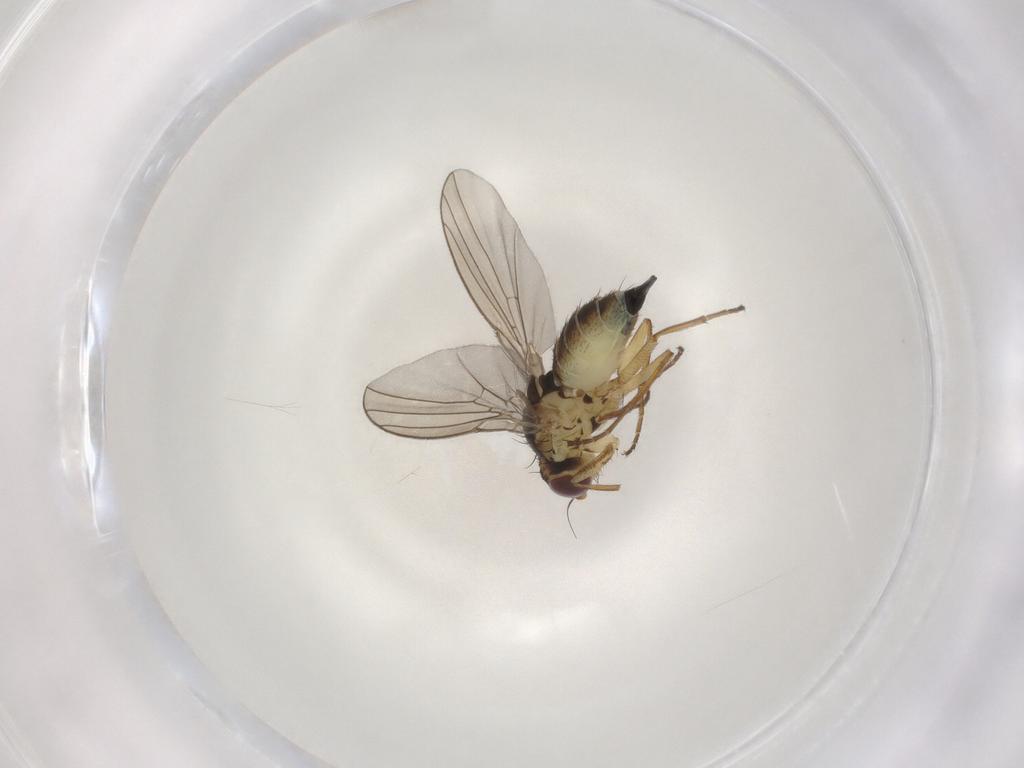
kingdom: Animalia
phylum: Arthropoda
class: Insecta
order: Diptera
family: Agromyzidae
